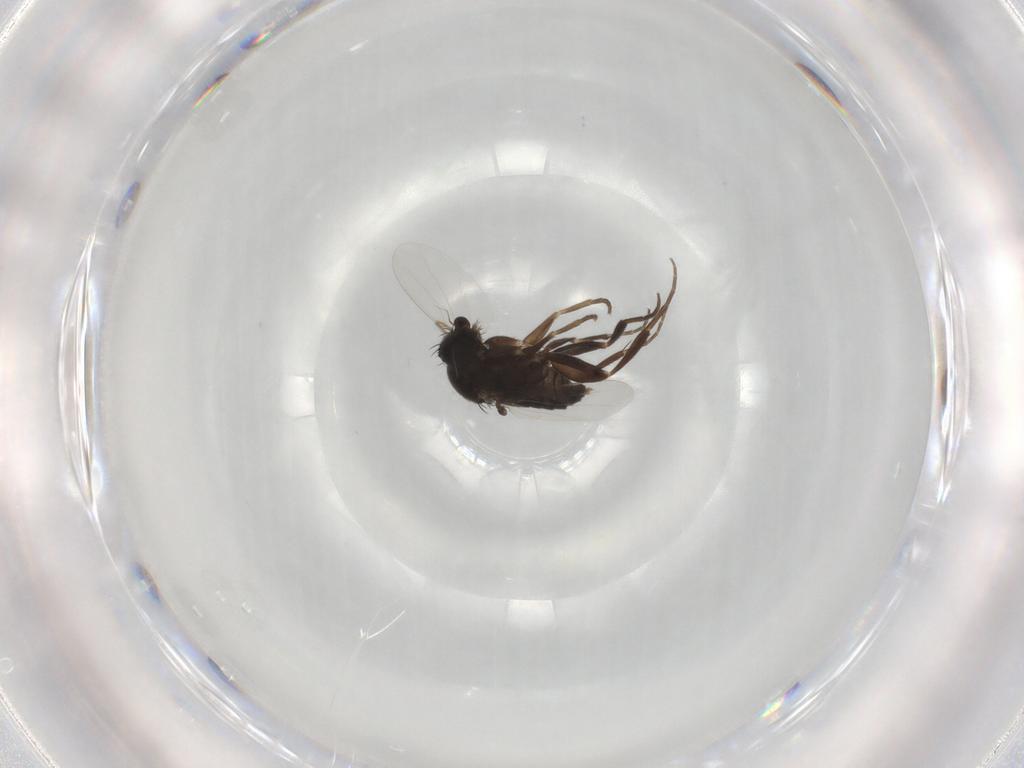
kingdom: Animalia
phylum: Arthropoda
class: Insecta
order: Diptera
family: Phoridae
